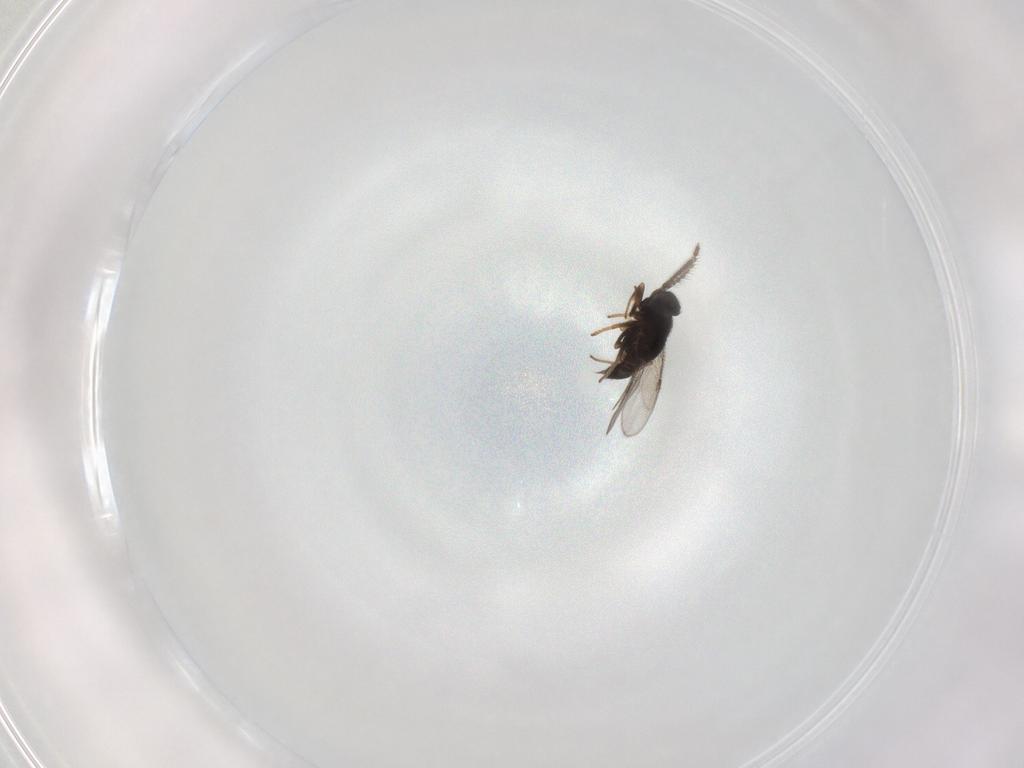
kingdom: Animalia
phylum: Arthropoda
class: Insecta
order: Hymenoptera
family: Encyrtidae
